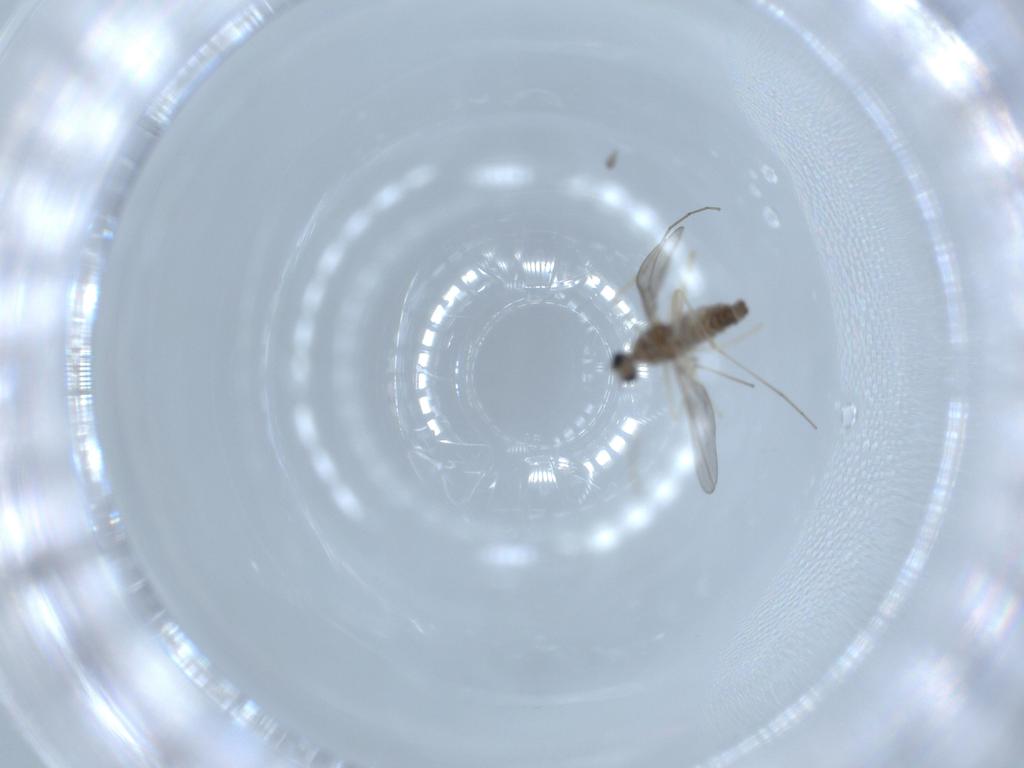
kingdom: Animalia
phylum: Arthropoda
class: Insecta
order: Diptera
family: Cecidomyiidae
